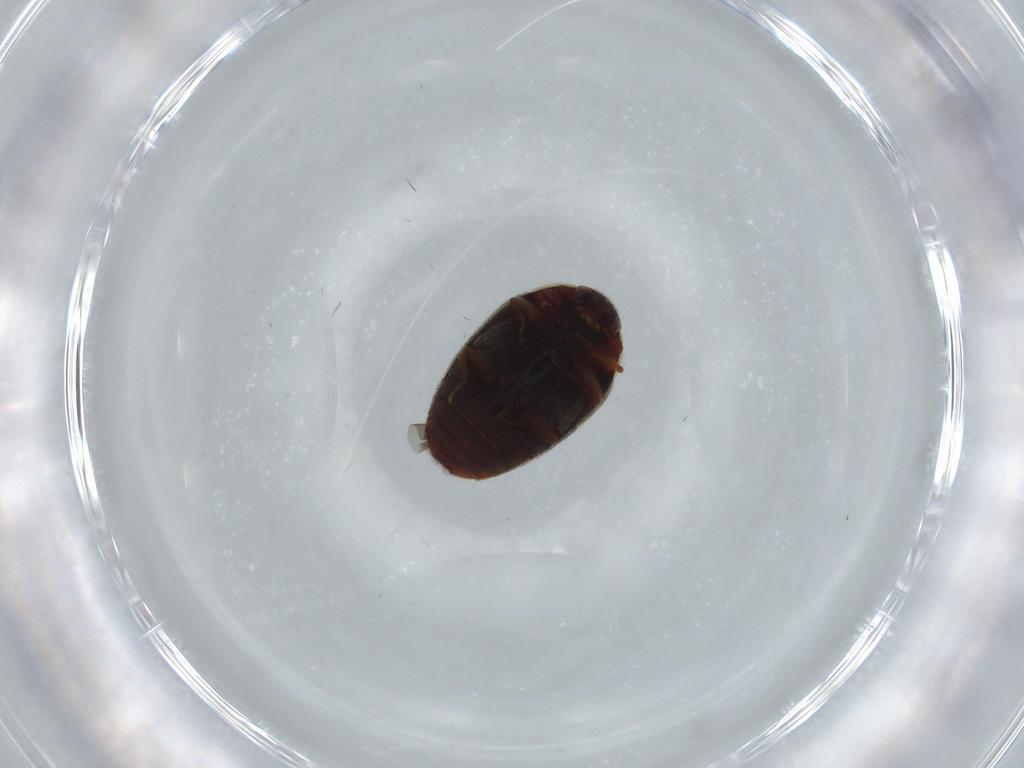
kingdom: Animalia
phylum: Arthropoda
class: Insecta
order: Coleoptera
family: Dermestidae
